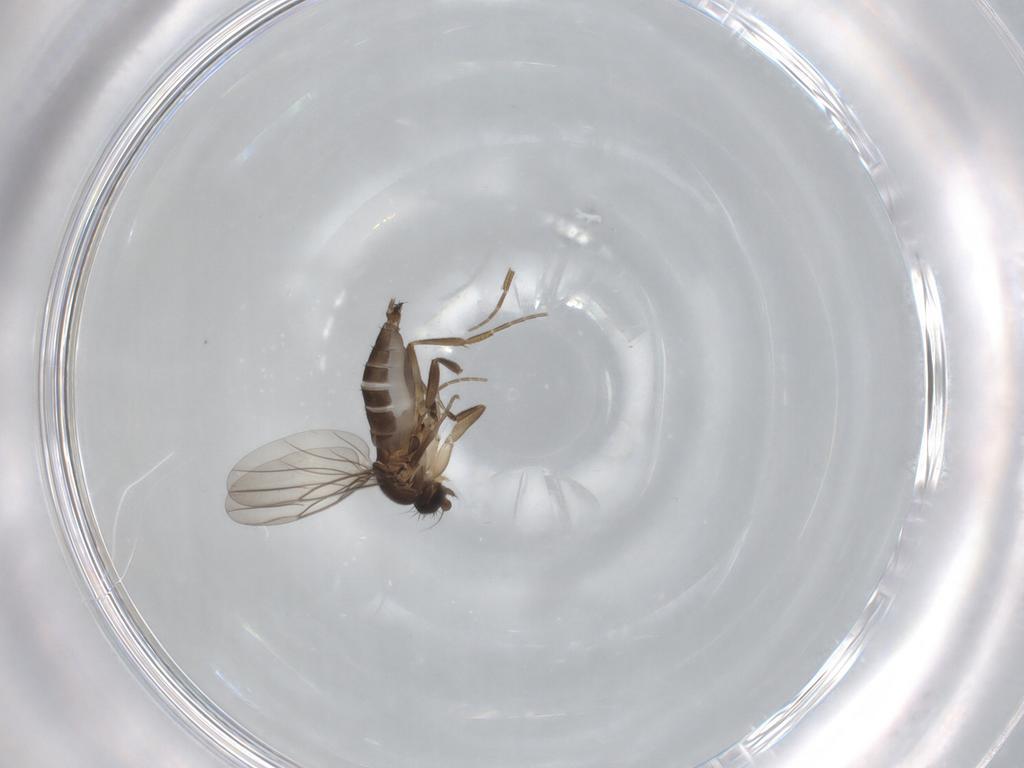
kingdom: Animalia
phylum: Arthropoda
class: Insecta
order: Diptera
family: Phoridae
